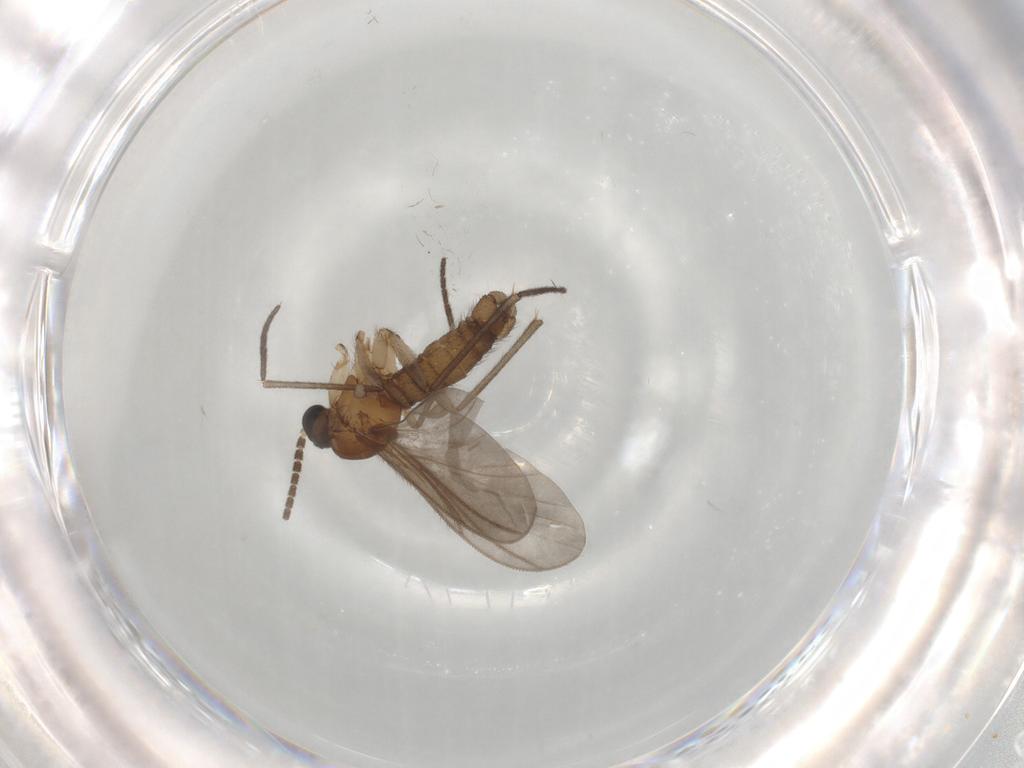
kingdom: Animalia
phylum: Arthropoda
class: Insecta
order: Diptera
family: Sciaridae
